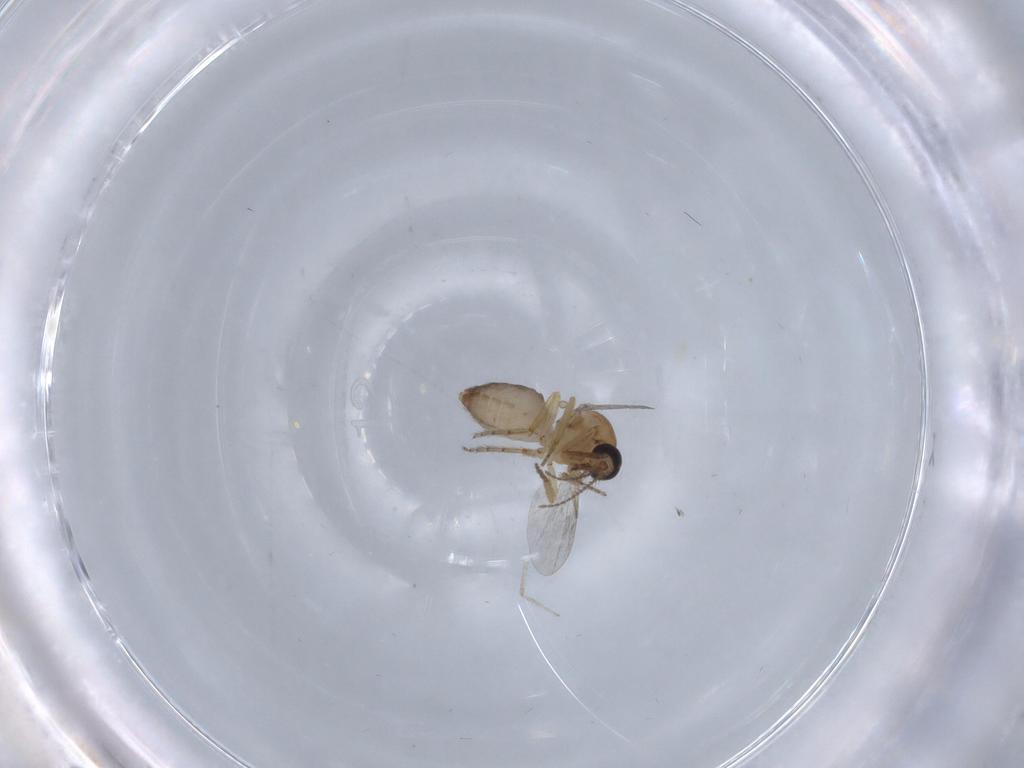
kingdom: Animalia
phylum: Arthropoda
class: Insecta
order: Diptera
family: Ceratopogonidae
